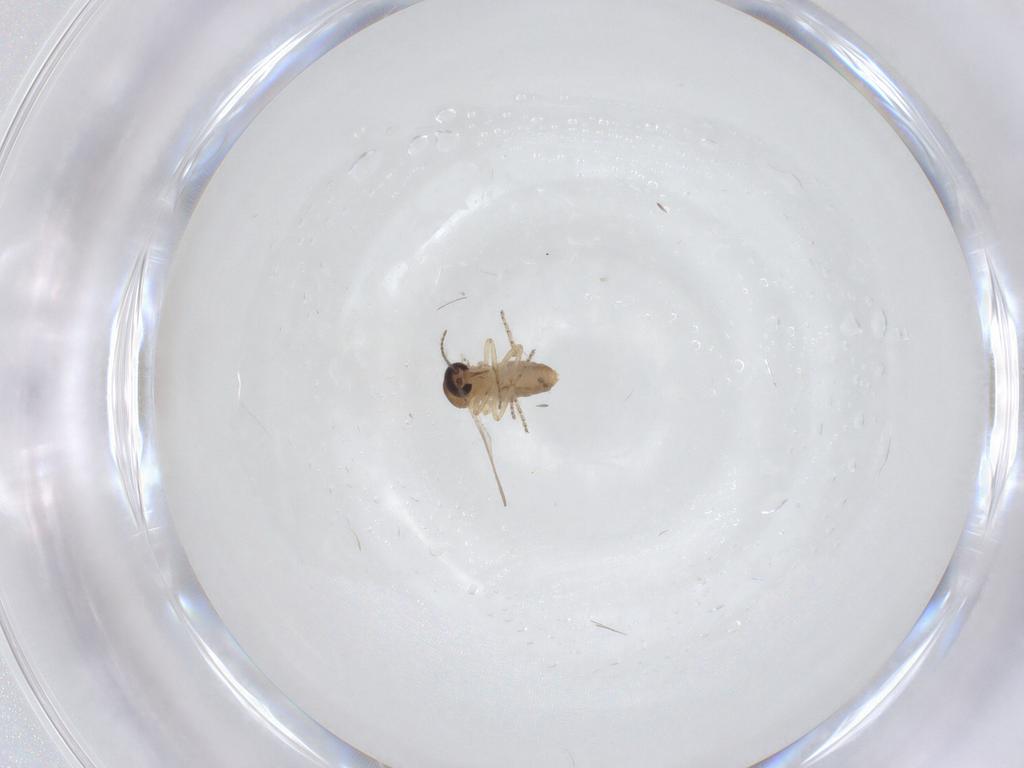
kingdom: Animalia
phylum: Arthropoda
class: Insecta
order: Diptera
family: Ceratopogonidae
